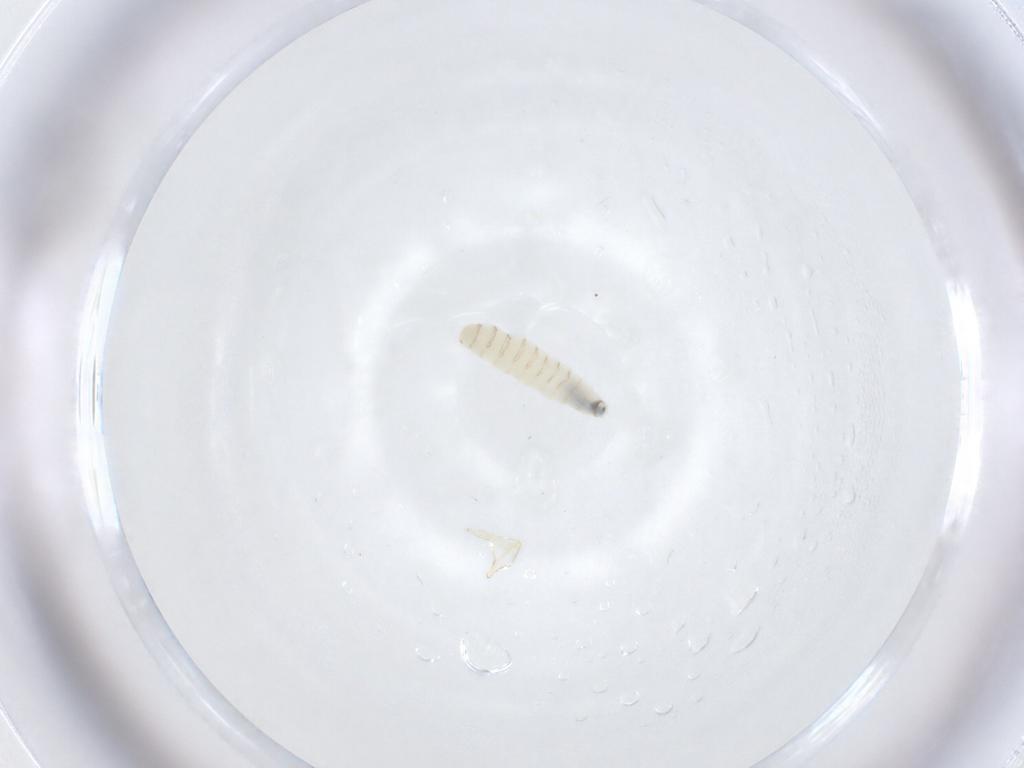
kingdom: Animalia
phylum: Arthropoda
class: Insecta
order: Diptera
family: Sarcophagidae
